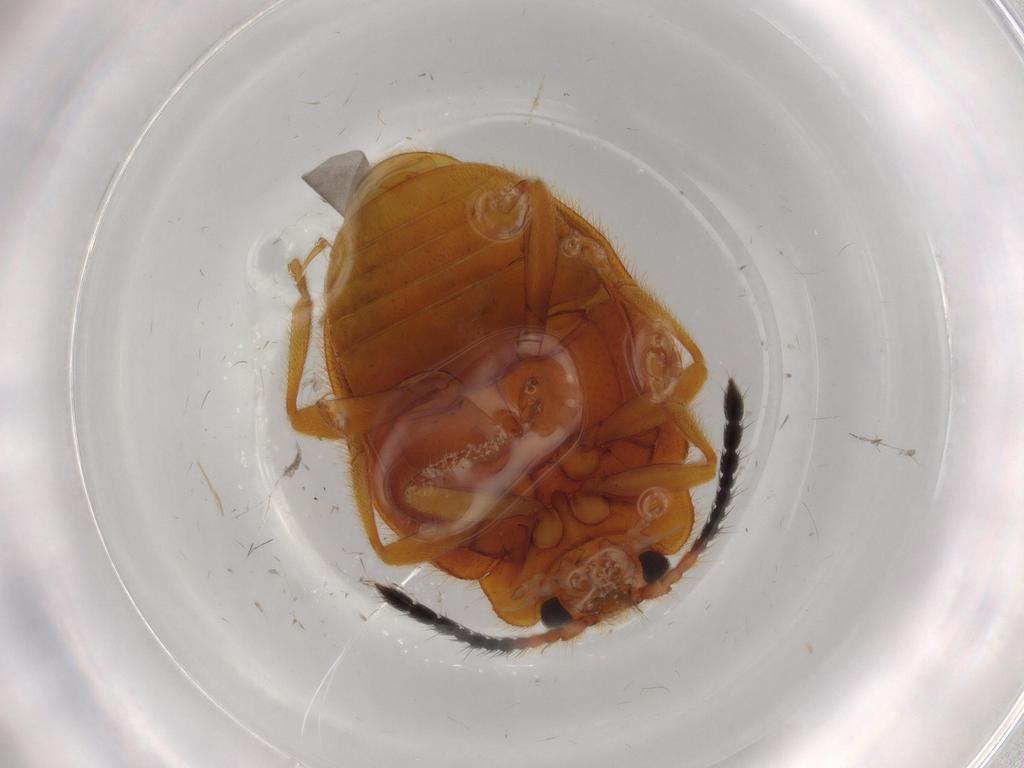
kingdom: Animalia
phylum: Arthropoda
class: Insecta
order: Coleoptera
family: Endomychidae
